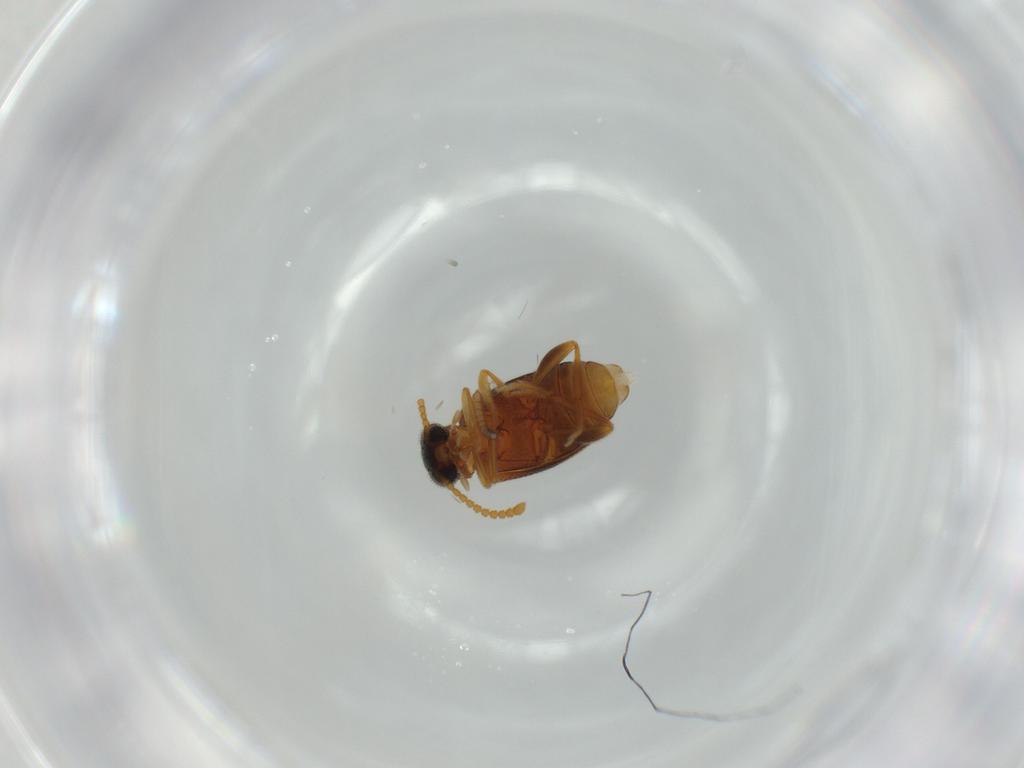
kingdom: Animalia
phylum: Arthropoda
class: Insecta
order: Coleoptera
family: Aderidae
